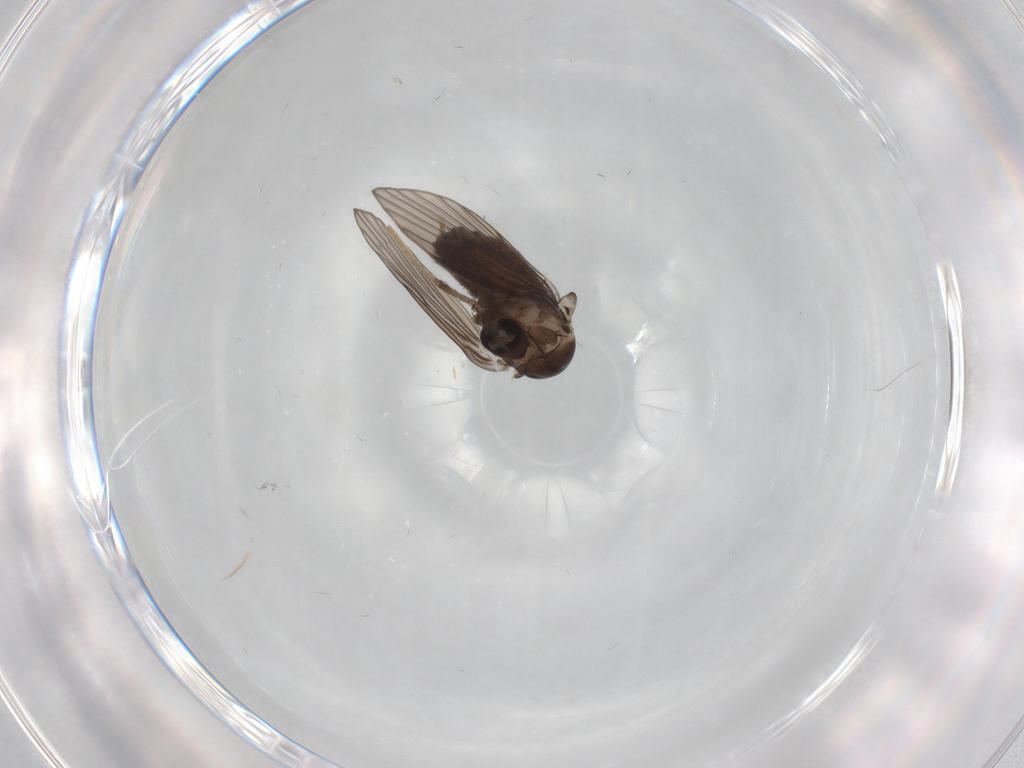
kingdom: Animalia
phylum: Arthropoda
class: Insecta
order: Diptera
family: Psychodidae
